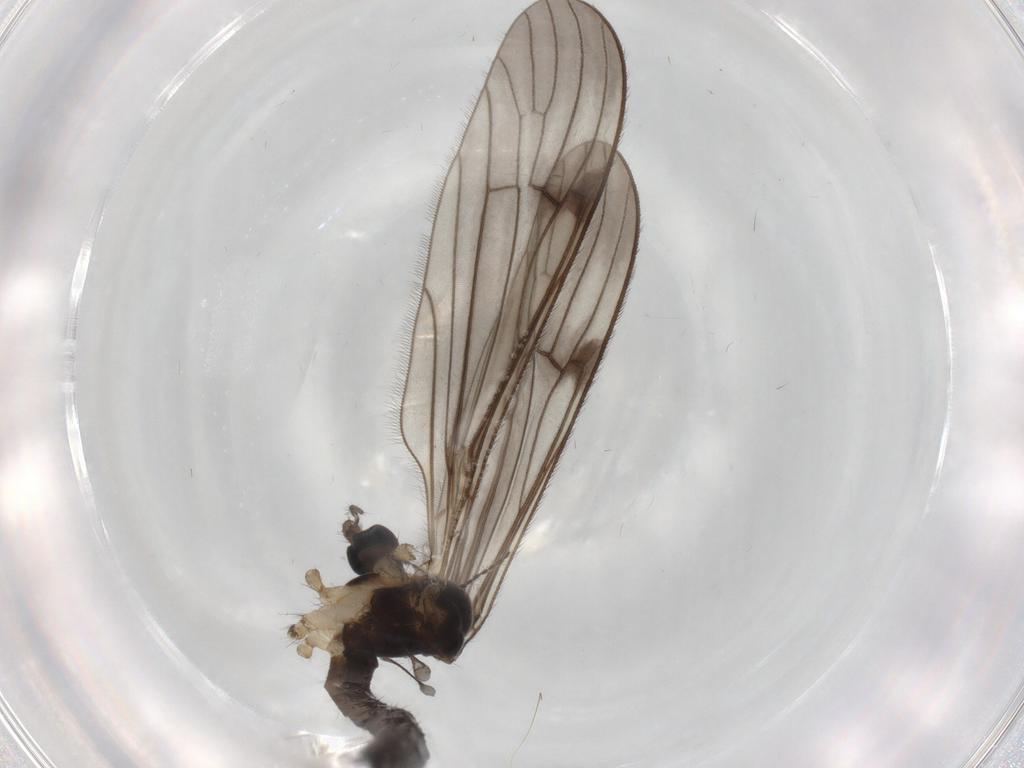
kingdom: Animalia
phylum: Arthropoda
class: Insecta
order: Diptera
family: Limoniidae
